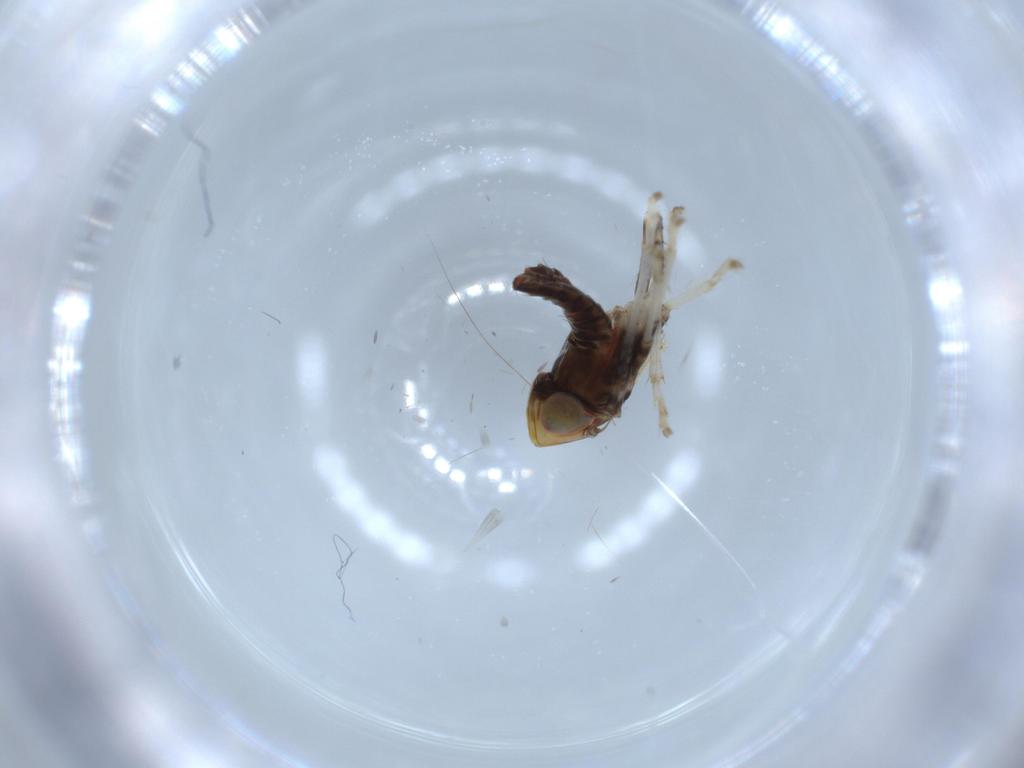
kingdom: Animalia
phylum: Arthropoda
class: Insecta
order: Hemiptera
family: Cicadellidae
